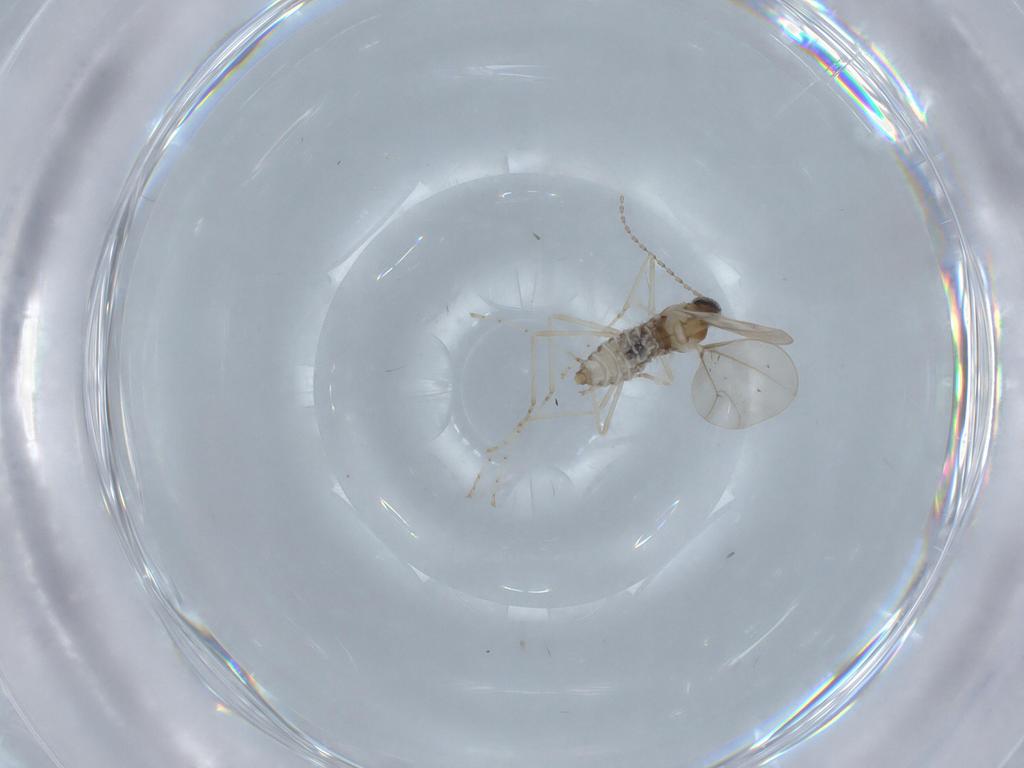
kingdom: Animalia
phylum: Arthropoda
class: Insecta
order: Diptera
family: Cecidomyiidae
